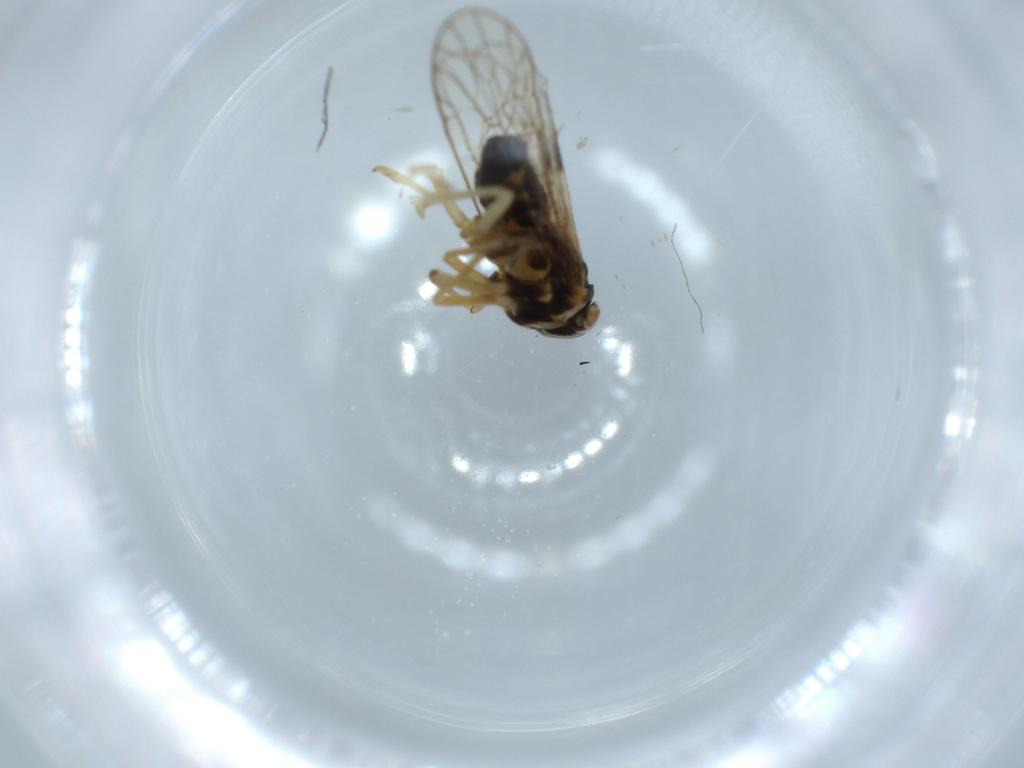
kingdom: Animalia
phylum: Arthropoda
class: Insecta
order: Diptera
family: Cecidomyiidae
